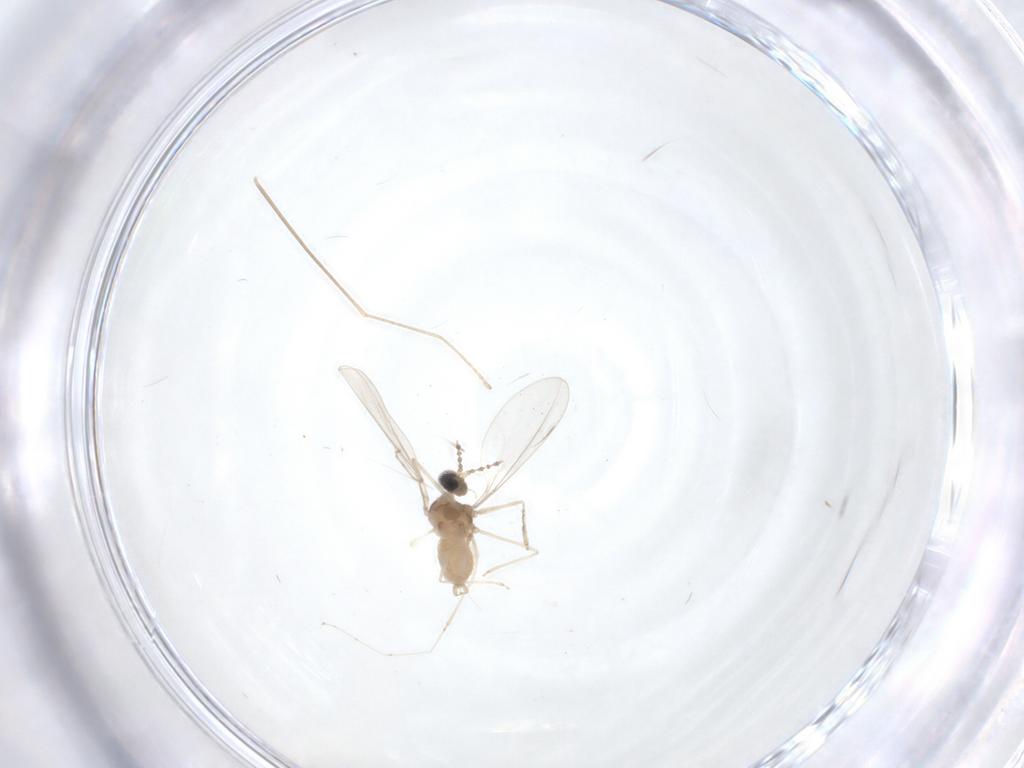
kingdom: Animalia
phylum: Arthropoda
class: Insecta
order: Diptera
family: Cecidomyiidae
